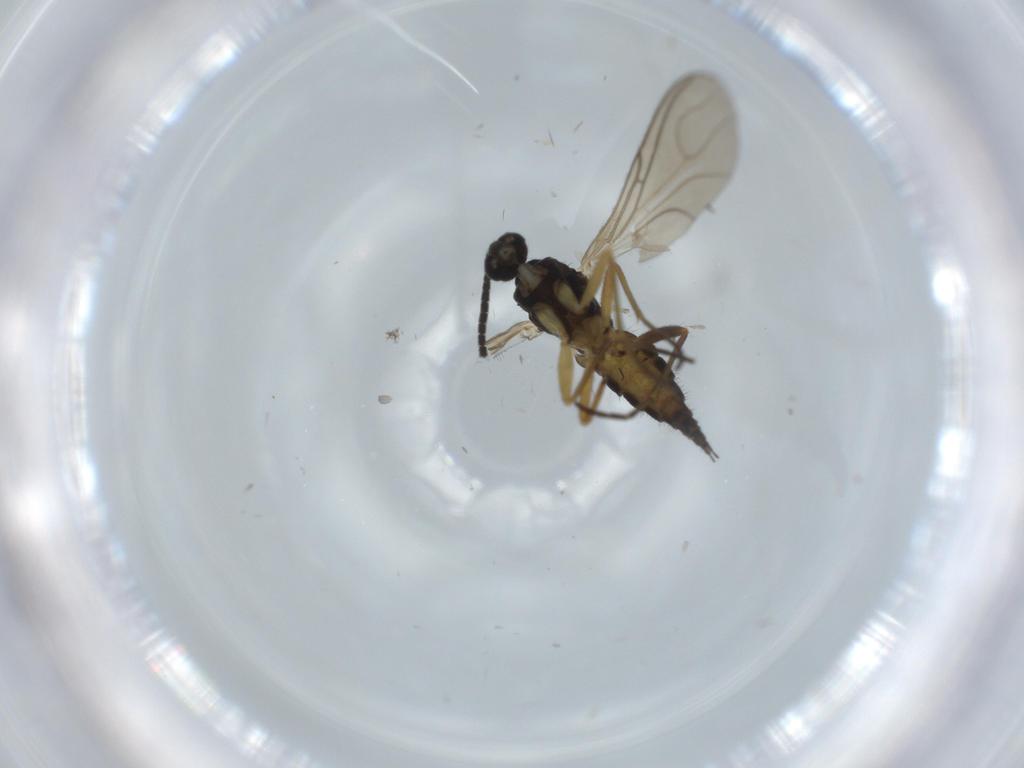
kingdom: Animalia
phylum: Arthropoda
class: Insecta
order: Diptera
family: Sciaridae
